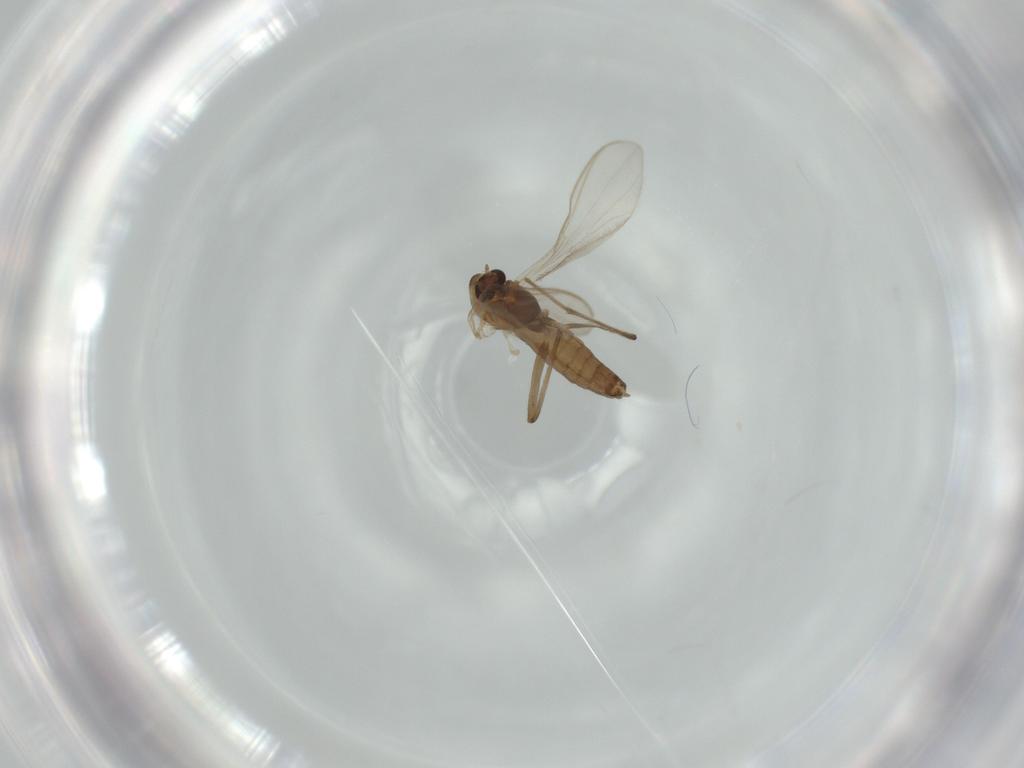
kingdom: Animalia
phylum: Arthropoda
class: Insecta
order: Diptera
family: Chironomidae
